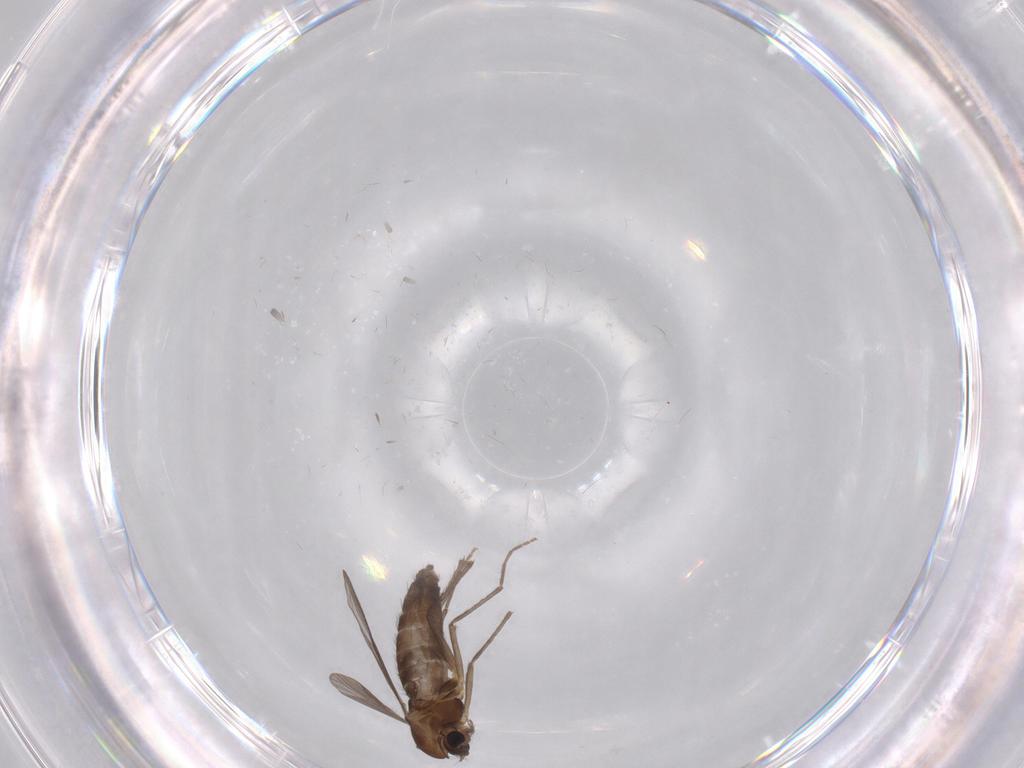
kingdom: Animalia
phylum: Arthropoda
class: Insecta
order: Diptera
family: Chironomidae
